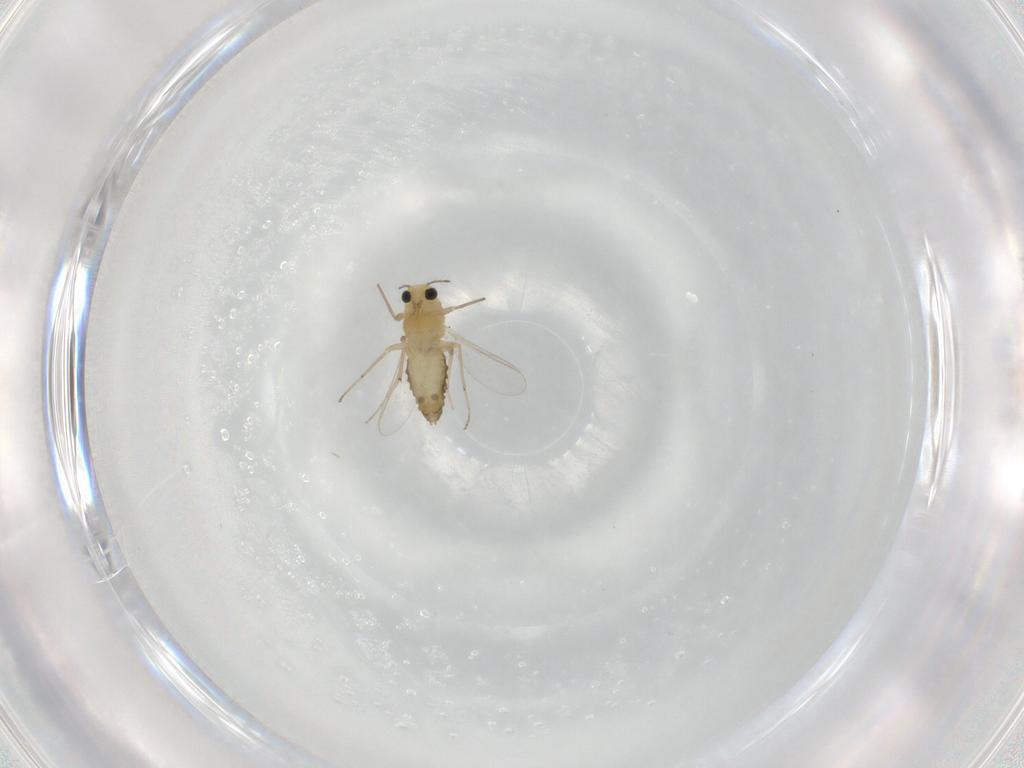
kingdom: Animalia
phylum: Arthropoda
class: Insecta
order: Diptera
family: Chironomidae
